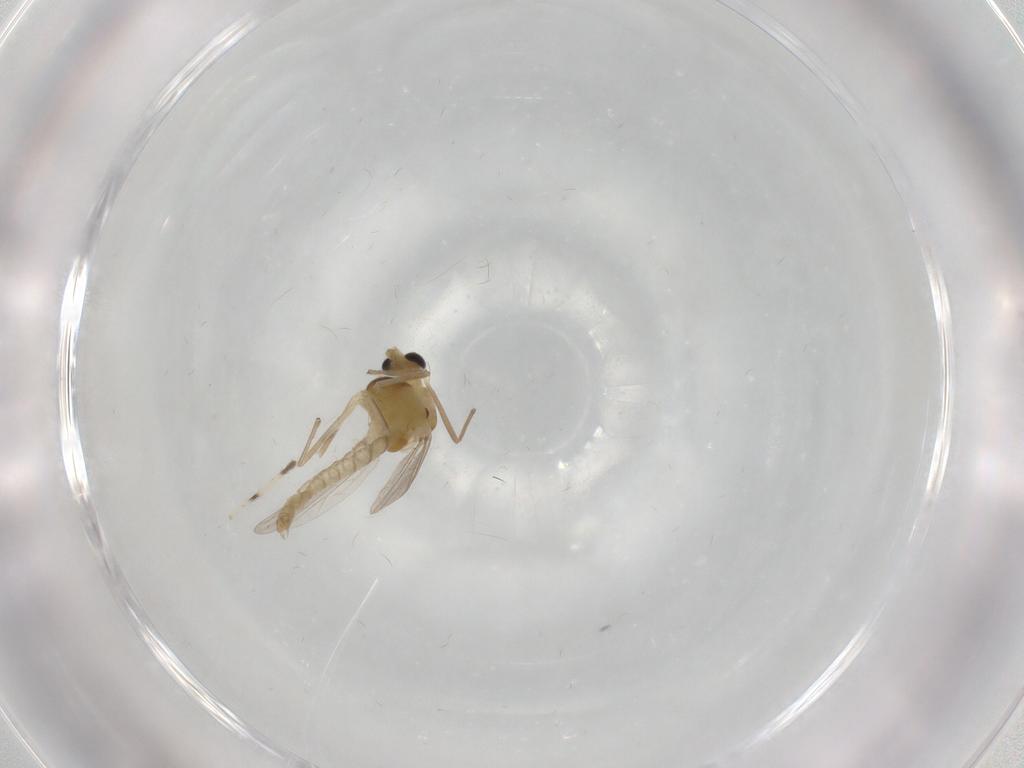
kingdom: Animalia
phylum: Arthropoda
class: Insecta
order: Diptera
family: Chironomidae
